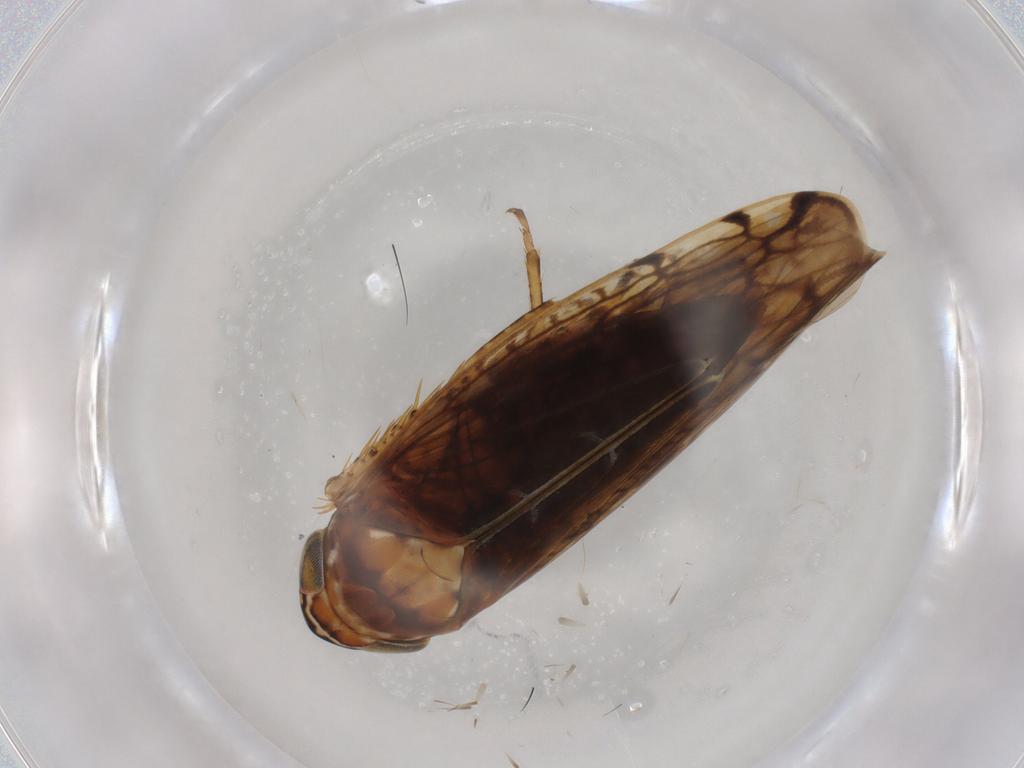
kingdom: Animalia
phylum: Arthropoda
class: Insecta
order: Hemiptera
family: Cicadellidae
